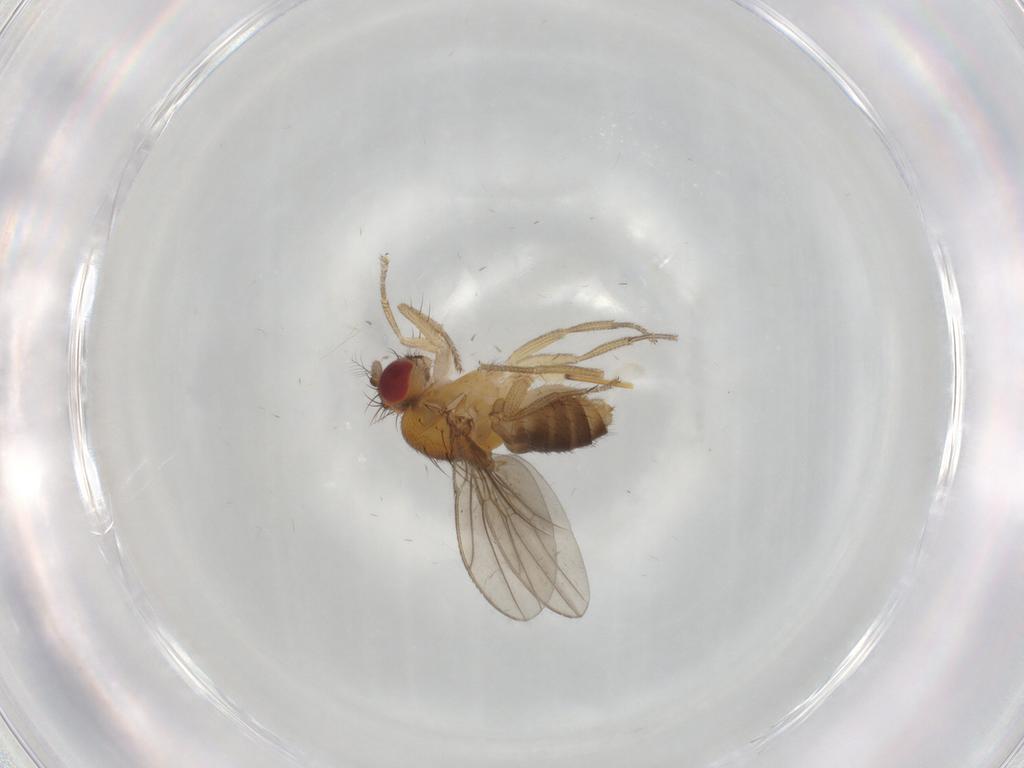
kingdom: Animalia
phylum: Arthropoda
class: Insecta
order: Diptera
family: Drosophilidae
